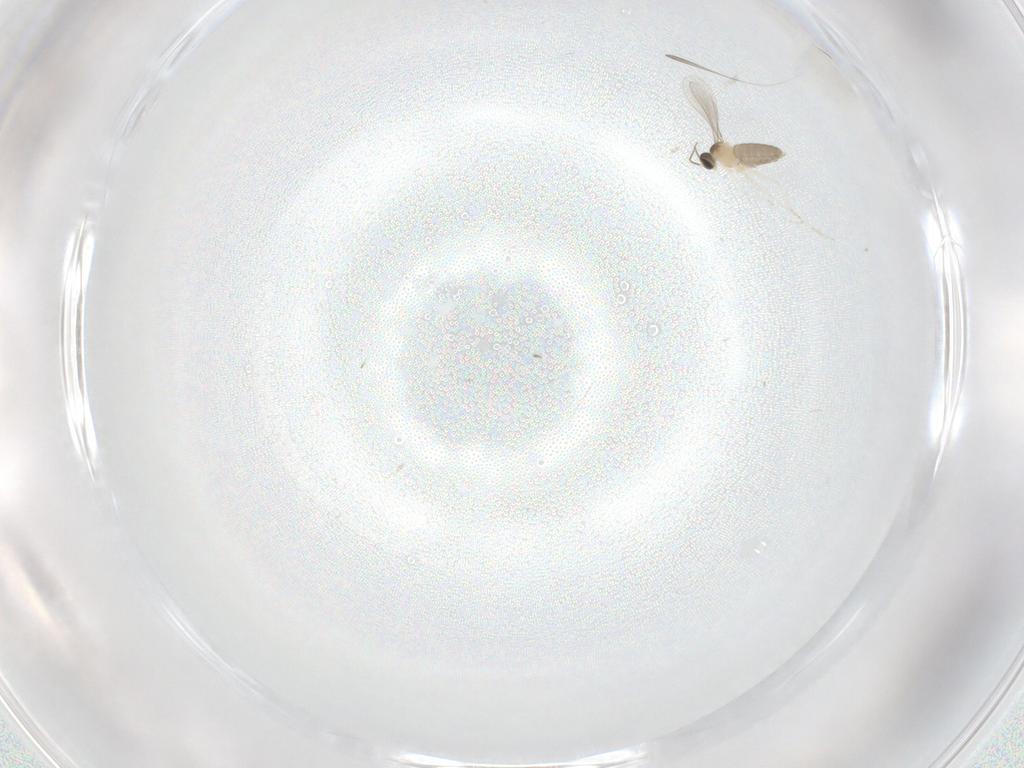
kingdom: Animalia
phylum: Arthropoda
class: Insecta
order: Diptera
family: Cecidomyiidae
